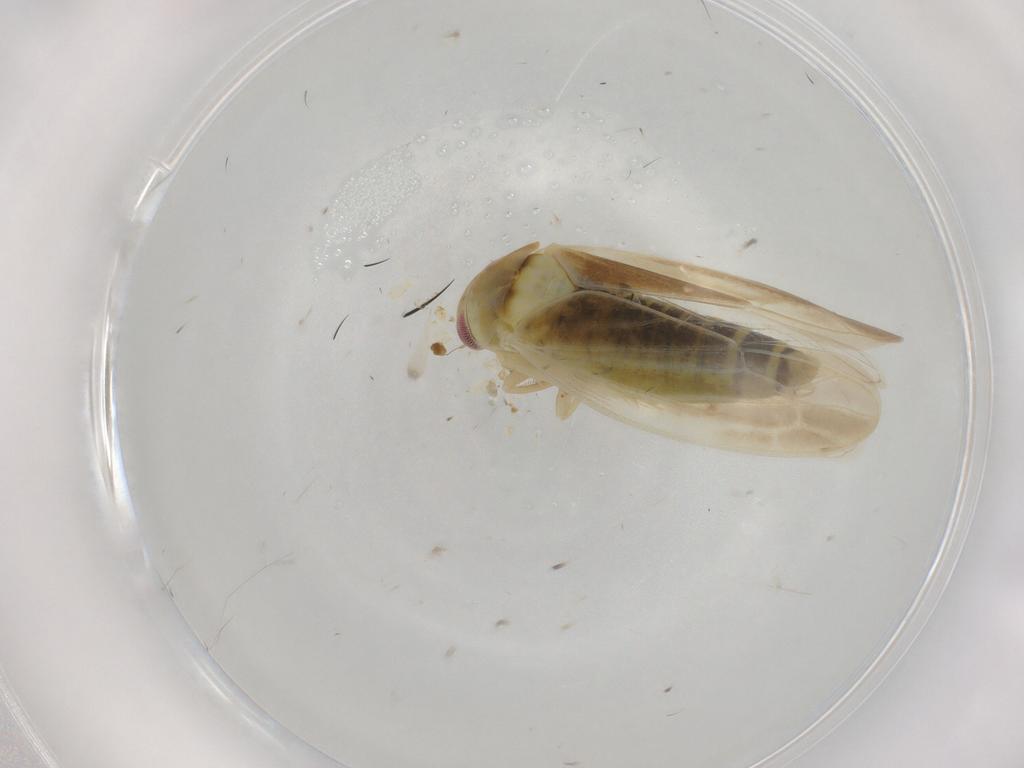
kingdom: Animalia
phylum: Arthropoda
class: Insecta
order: Hemiptera
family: Cicadellidae
